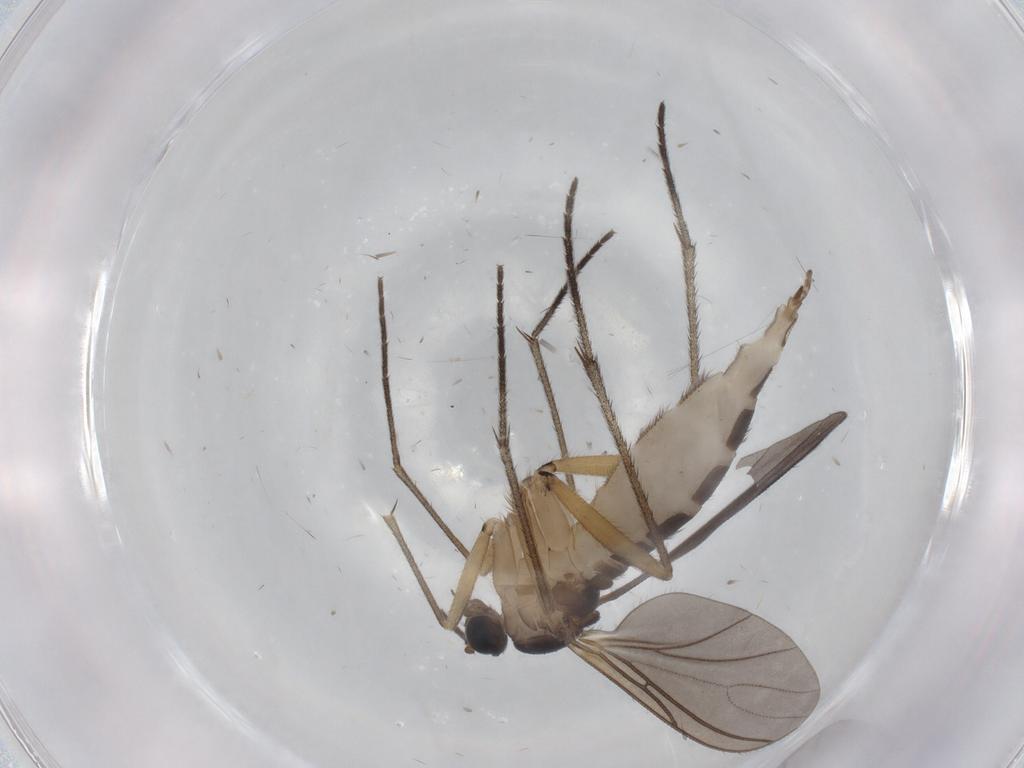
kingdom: Animalia
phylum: Arthropoda
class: Insecta
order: Diptera
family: Sciaridae
